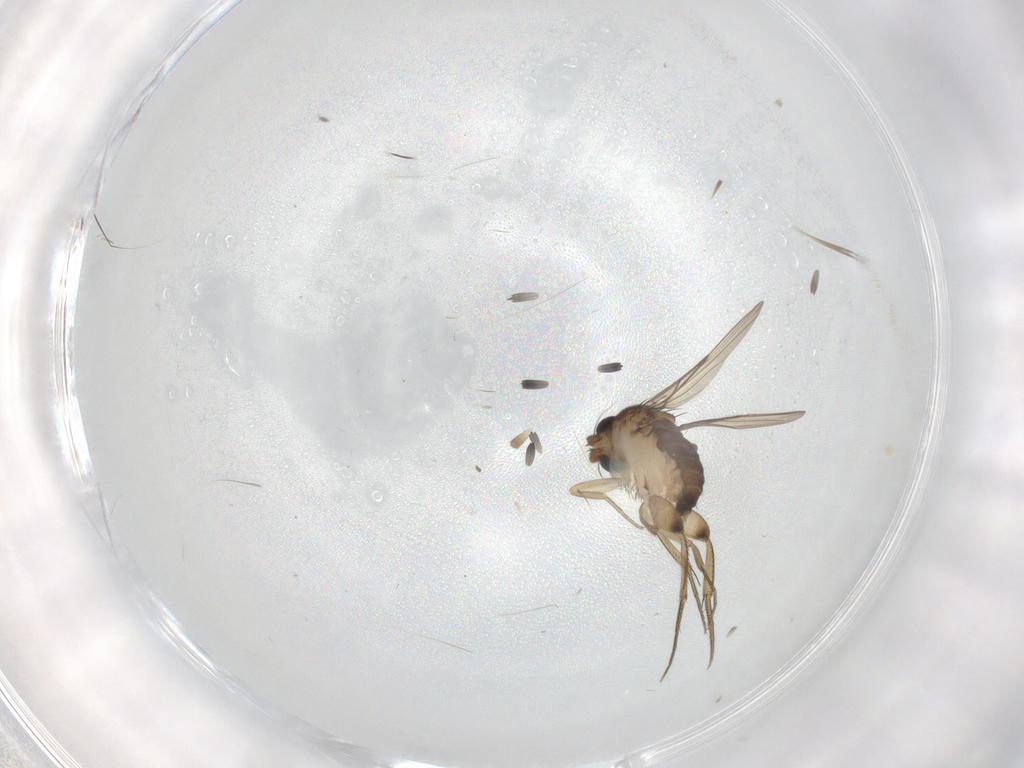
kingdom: Animalia
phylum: Arthropoda
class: Insecta
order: Diptera
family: Phoridae
